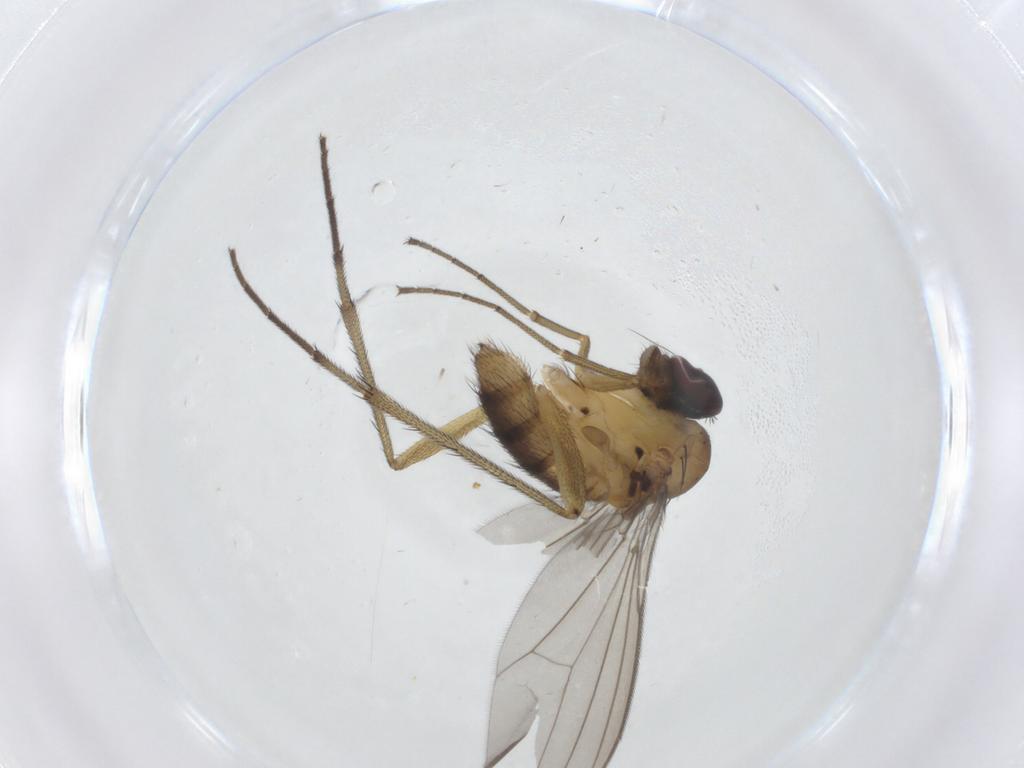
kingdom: Animalia
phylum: Arthropoda
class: Insecta
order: Diptera
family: Dolichopodidae
